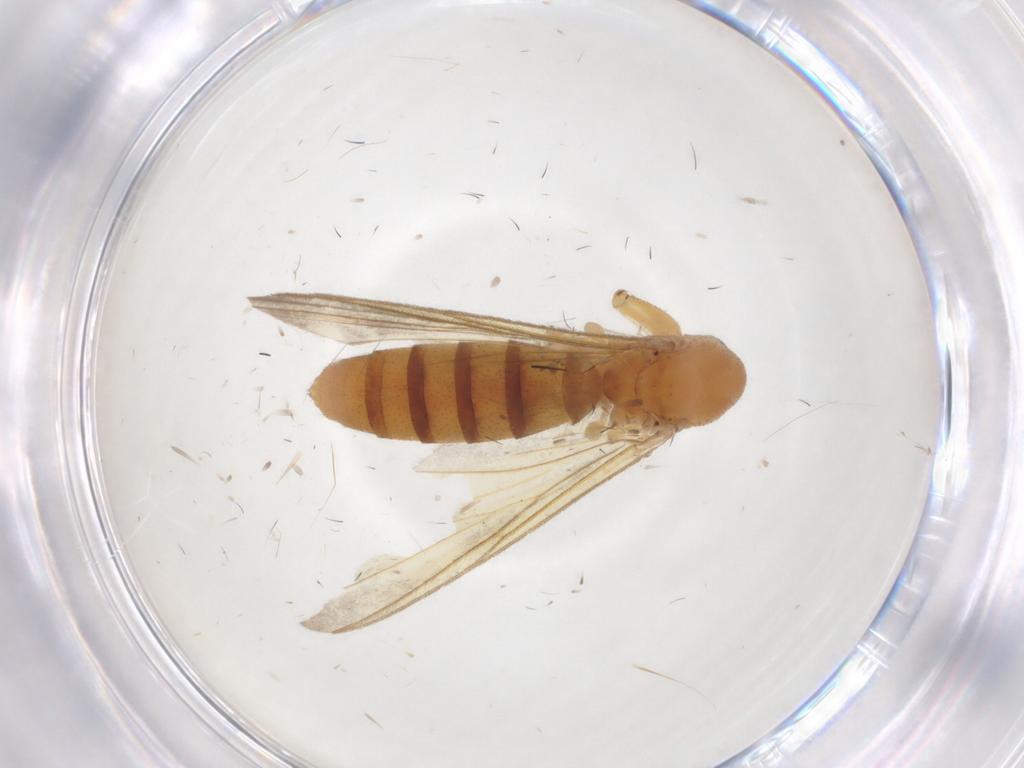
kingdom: Animalia
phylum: Arthropoda
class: Insecta
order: Diptera
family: Mycetophilidae
